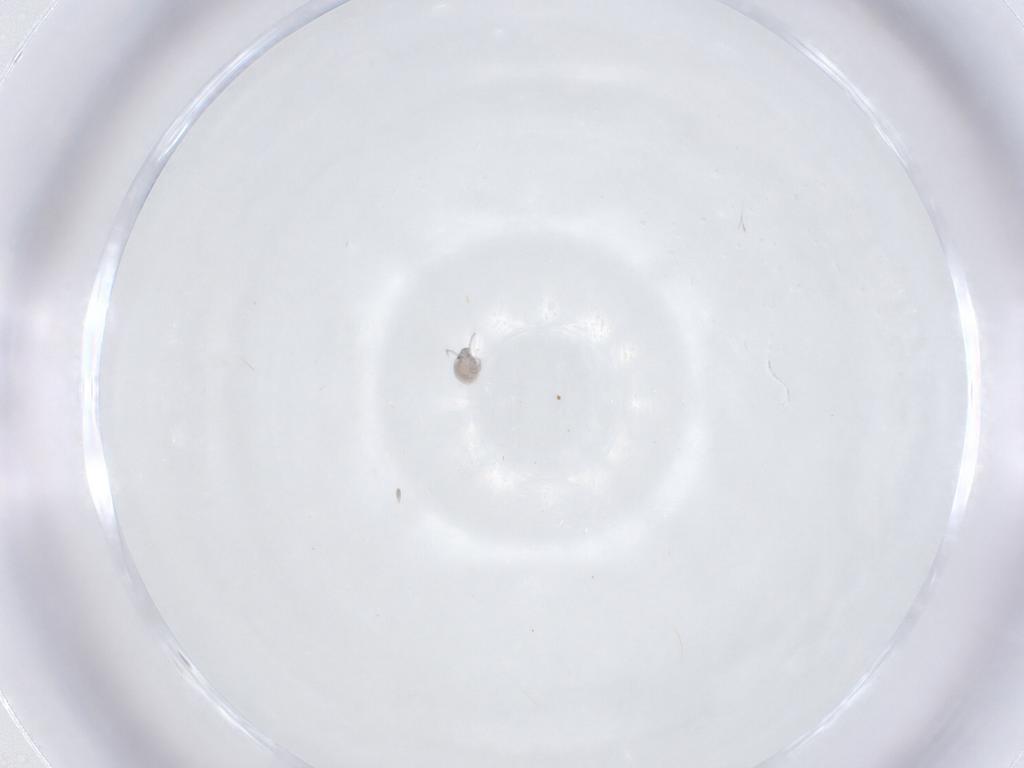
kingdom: Animalia
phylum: Arthropoda
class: Arachnida
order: Trombidiformes
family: Pionidae
